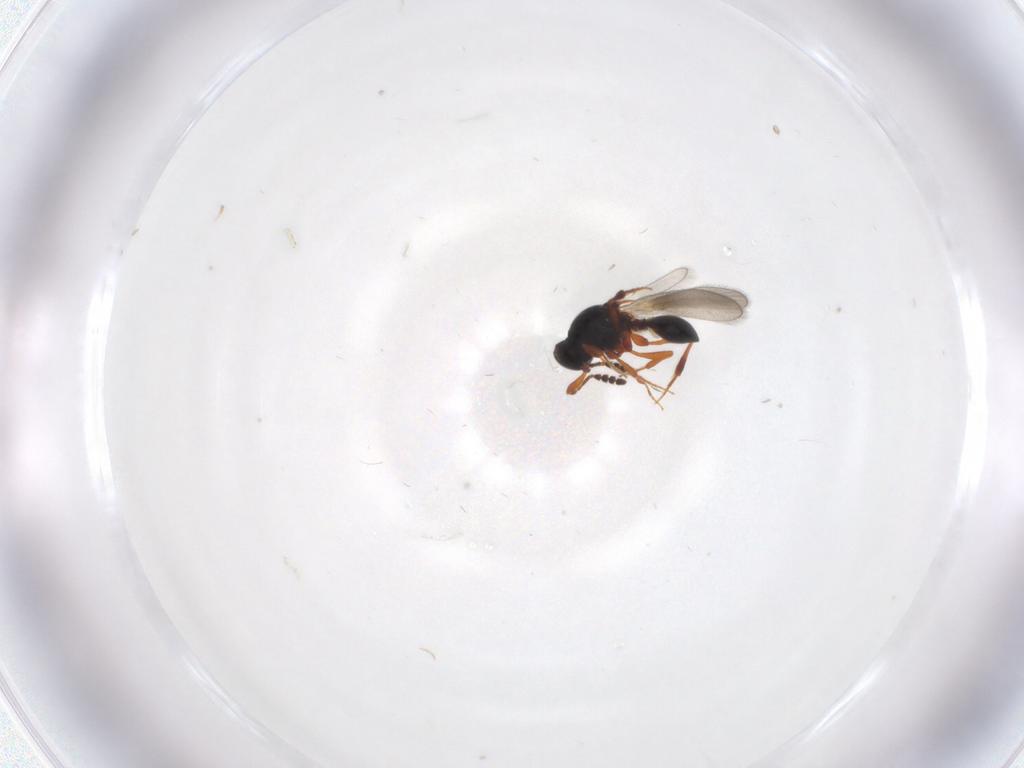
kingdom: Animalia
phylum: Arthropoda
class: Insecta
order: Hymenoptera
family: Platygastridae
